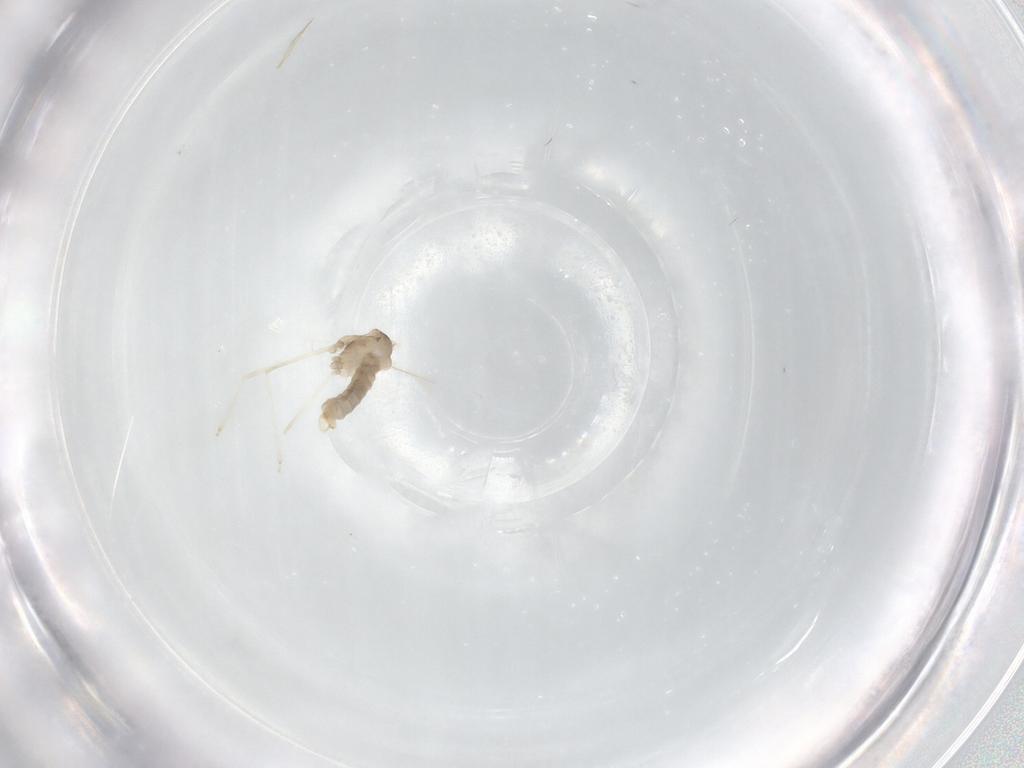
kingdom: Animalia
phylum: Arthropoda
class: Insecta
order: Diptera
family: Cecidomyiidae
